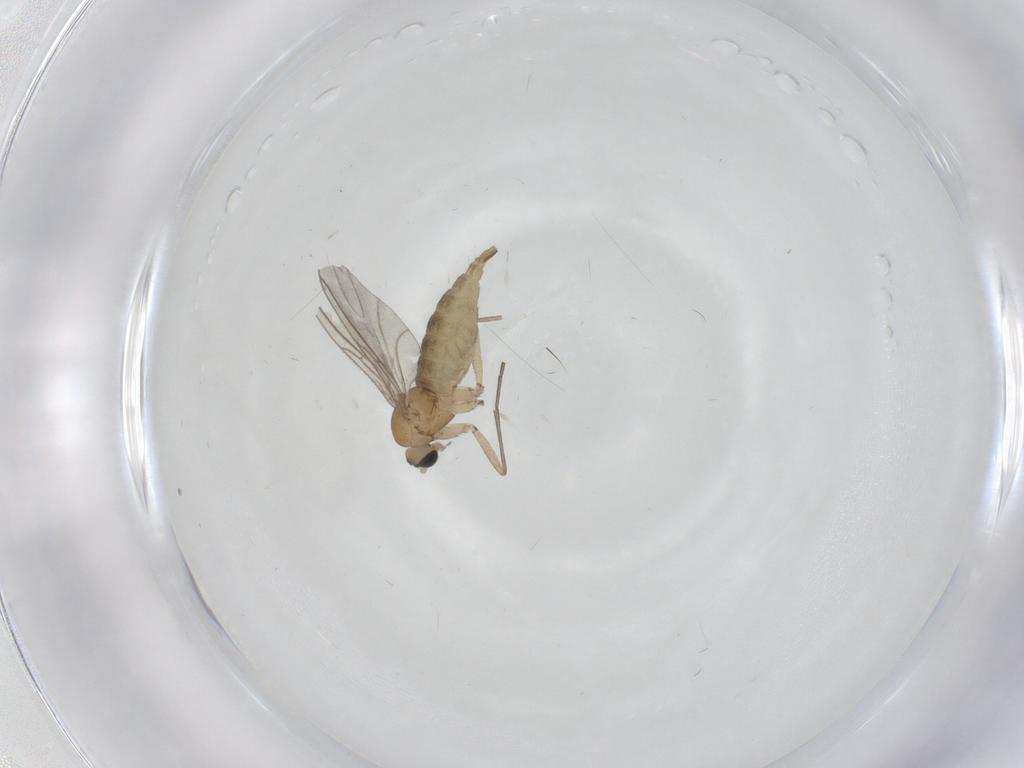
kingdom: Animalia
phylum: Arthropoda
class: Insecta
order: Diptera
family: Sciaridae
